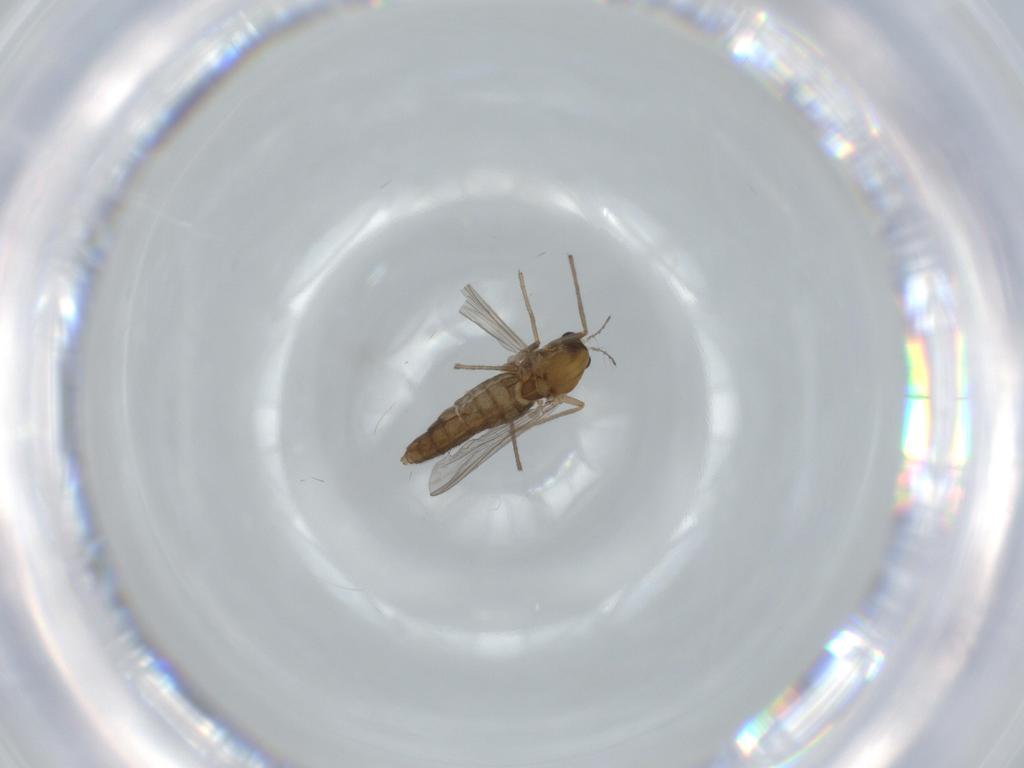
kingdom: Animalia
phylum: Arthropoda
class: Insecta
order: Diptera
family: Chironomidae
